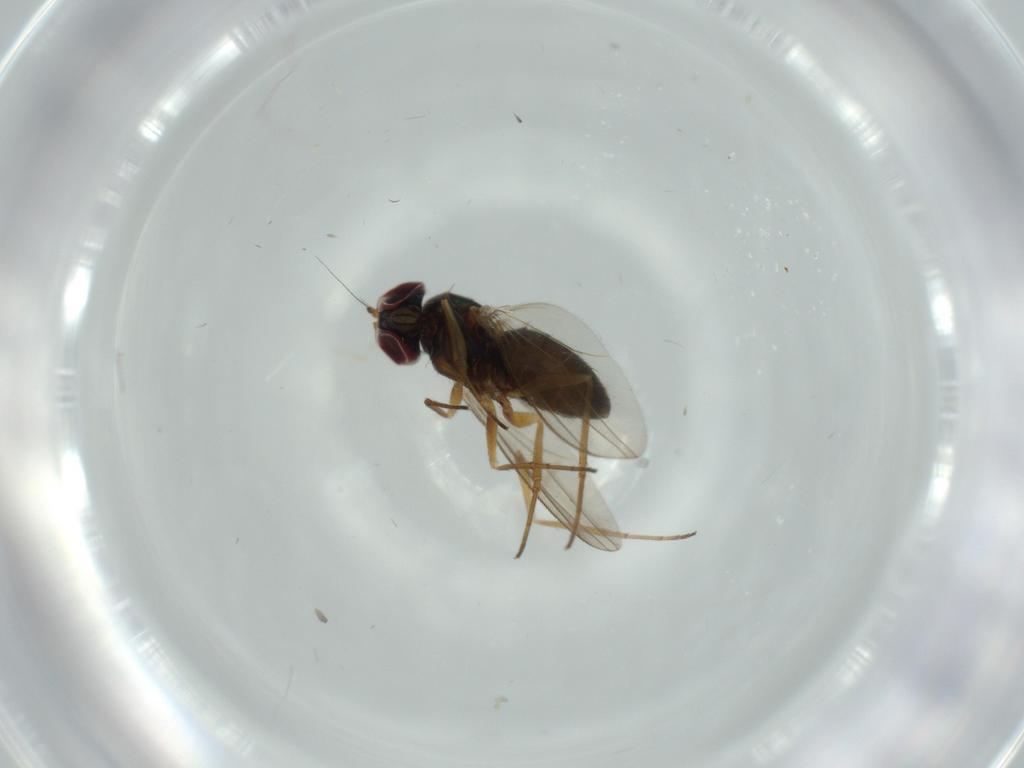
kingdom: Animalia
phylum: Arthropoda
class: Insecta
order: Diptera
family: Dolichopodidae
